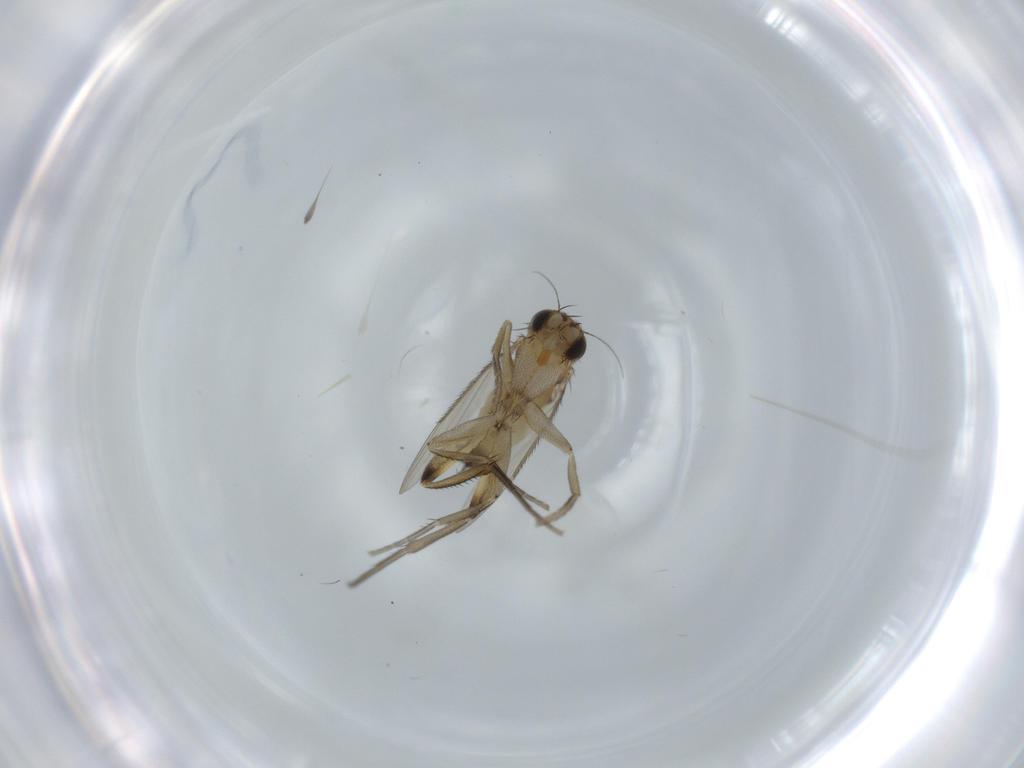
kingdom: Animalia
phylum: Arthropoda
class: Insecta
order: Diptera
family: Phoridae
